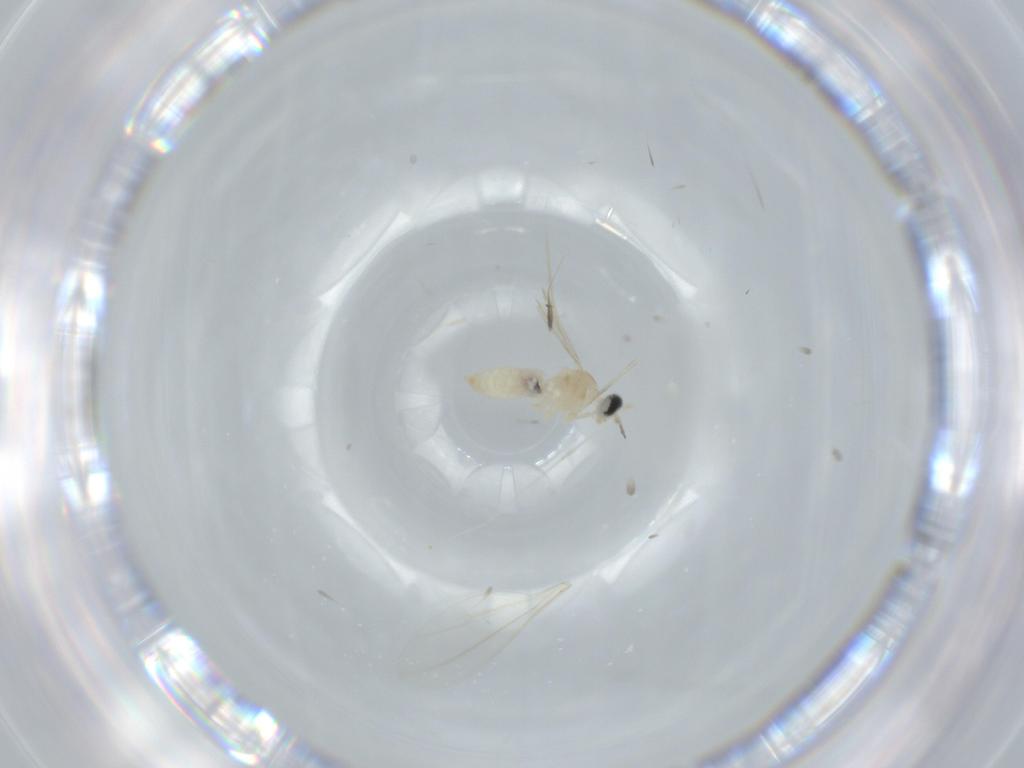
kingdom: Animalia
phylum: Arthropoda
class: Insecta
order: Diptera
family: Cecidomyiidae
